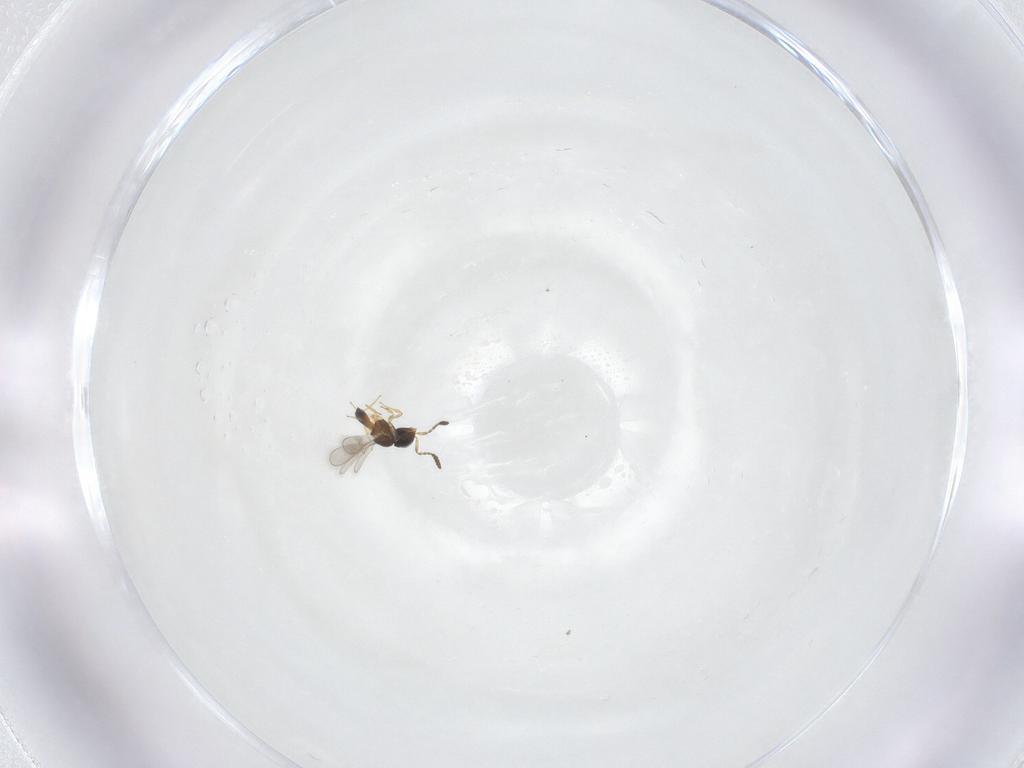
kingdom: Animalia
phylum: Arthropoda
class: Insecta
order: Hymenoptera
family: Scelionidae
